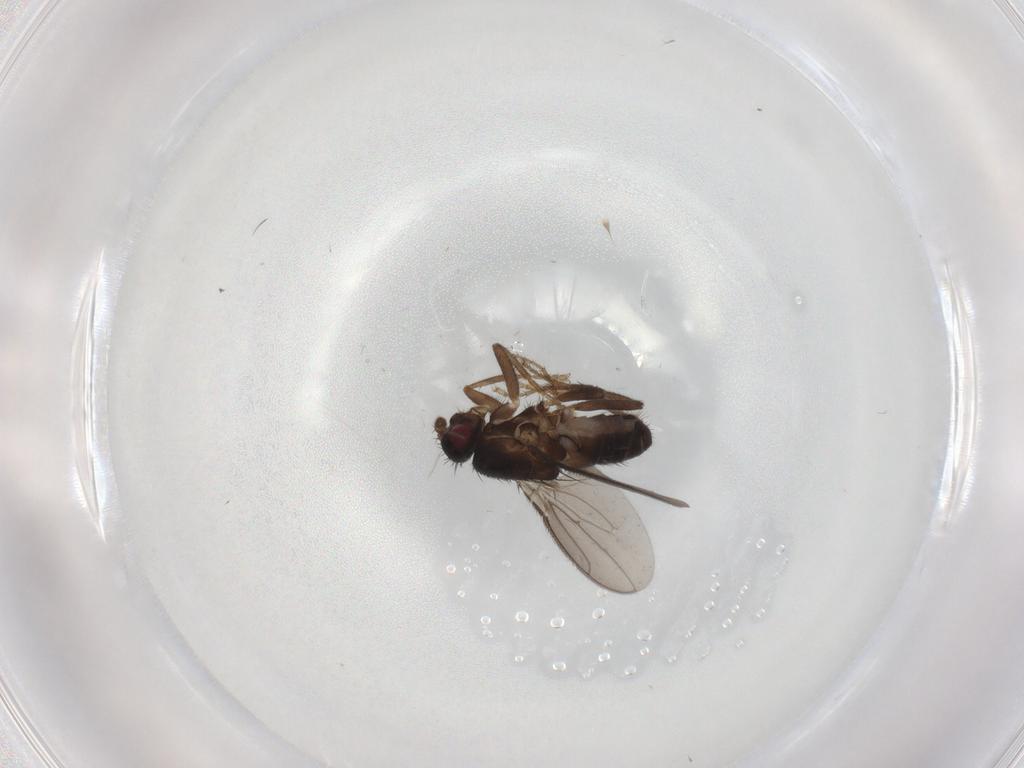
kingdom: Animalia
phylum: Arthropoda
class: Insecta
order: Diptera
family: Sphaeroceridae
